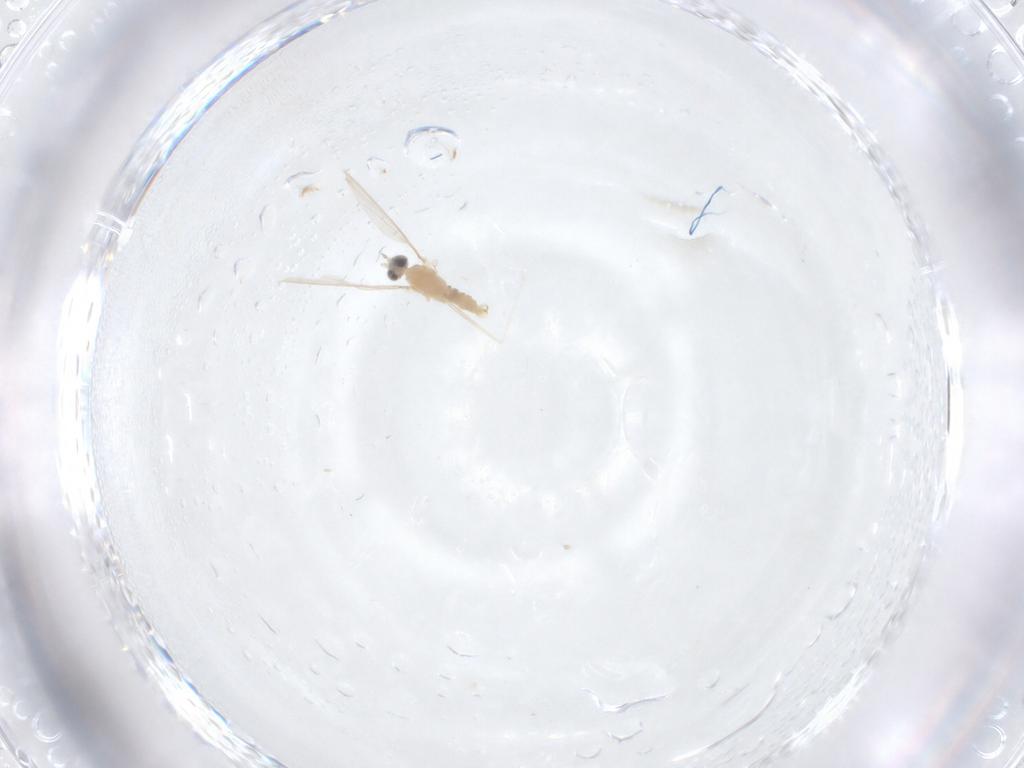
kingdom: Animalia
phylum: Arthropoda
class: Insecta
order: Diptera
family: Cecidomyiidae
